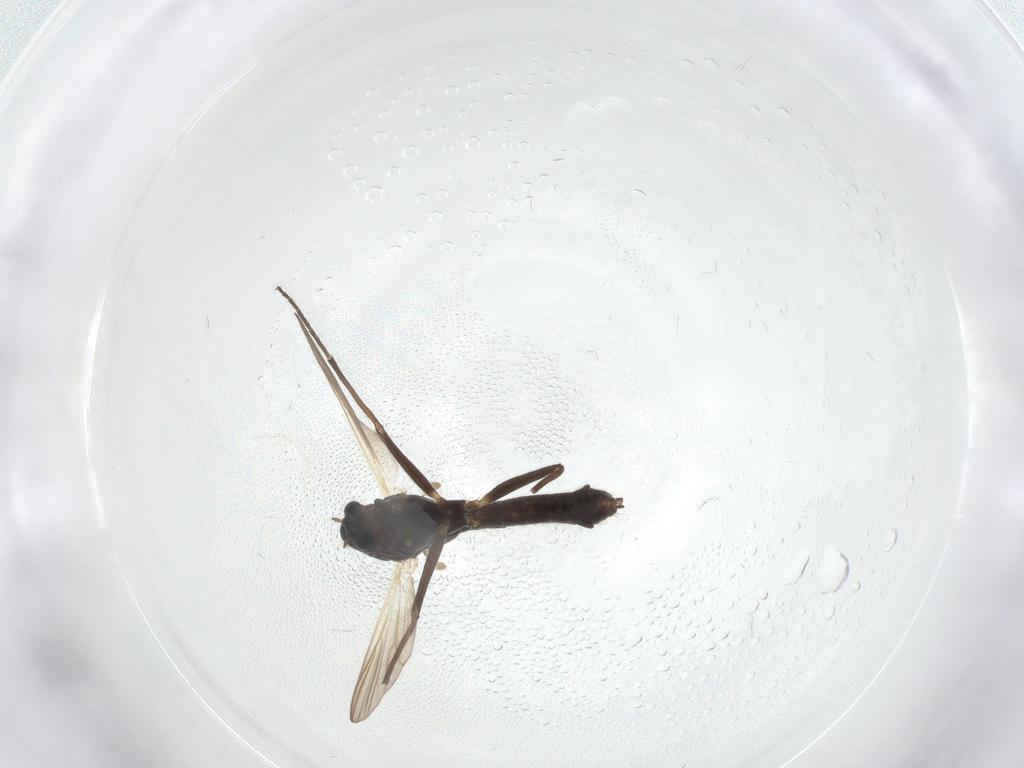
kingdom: Animalia
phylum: Arthropoda
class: Insecta
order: Diptera
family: Chironomidae
